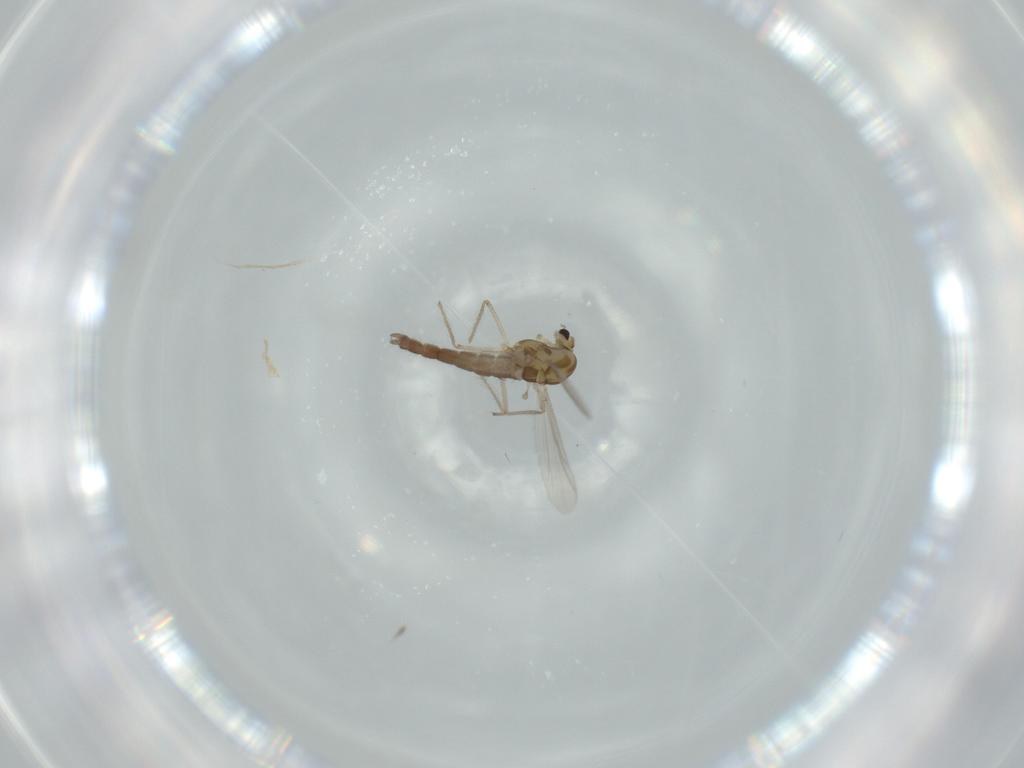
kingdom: Animalia
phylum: Arthropoda
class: Insecta
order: Diptera
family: Chironomidae
